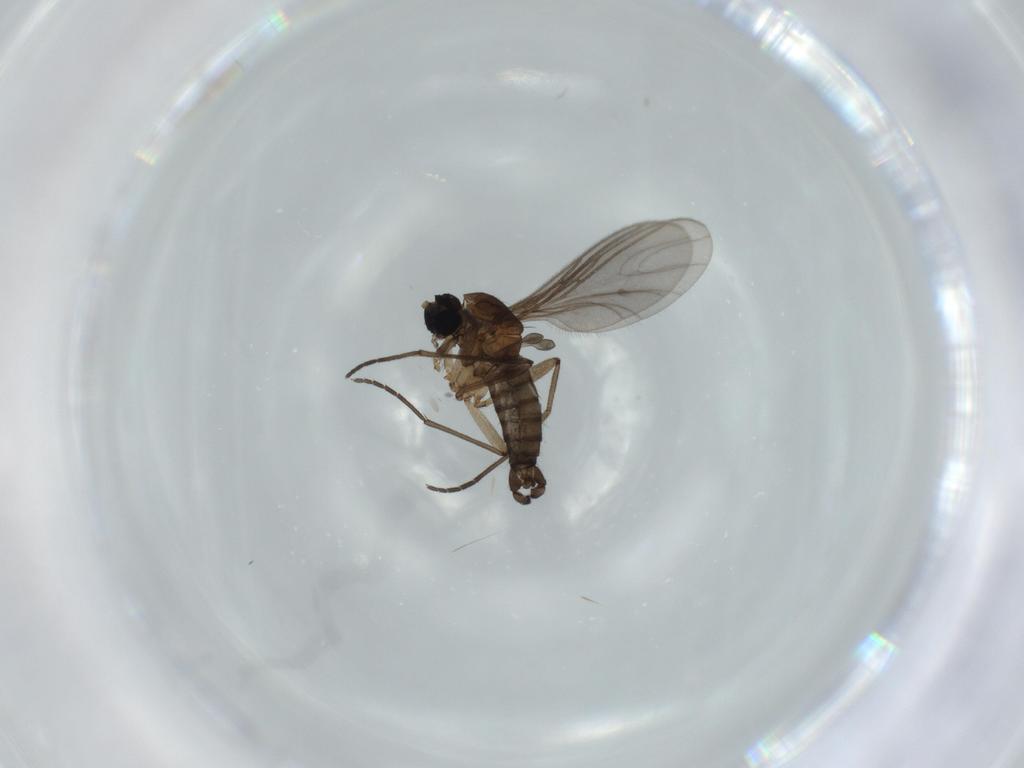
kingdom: Animalia
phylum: Arthropoda
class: Insecta
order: Diptera
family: Sciaridae
